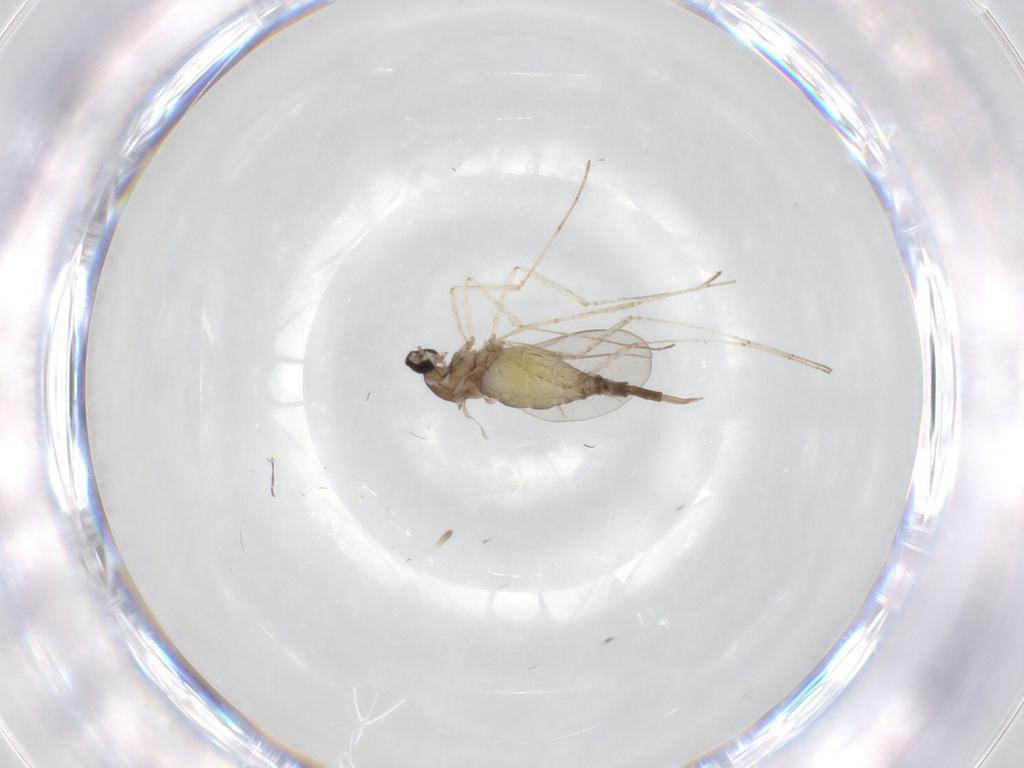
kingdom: Animalia
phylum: Arthropoda
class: Insecta
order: Diptera
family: Cecidomyiidae
